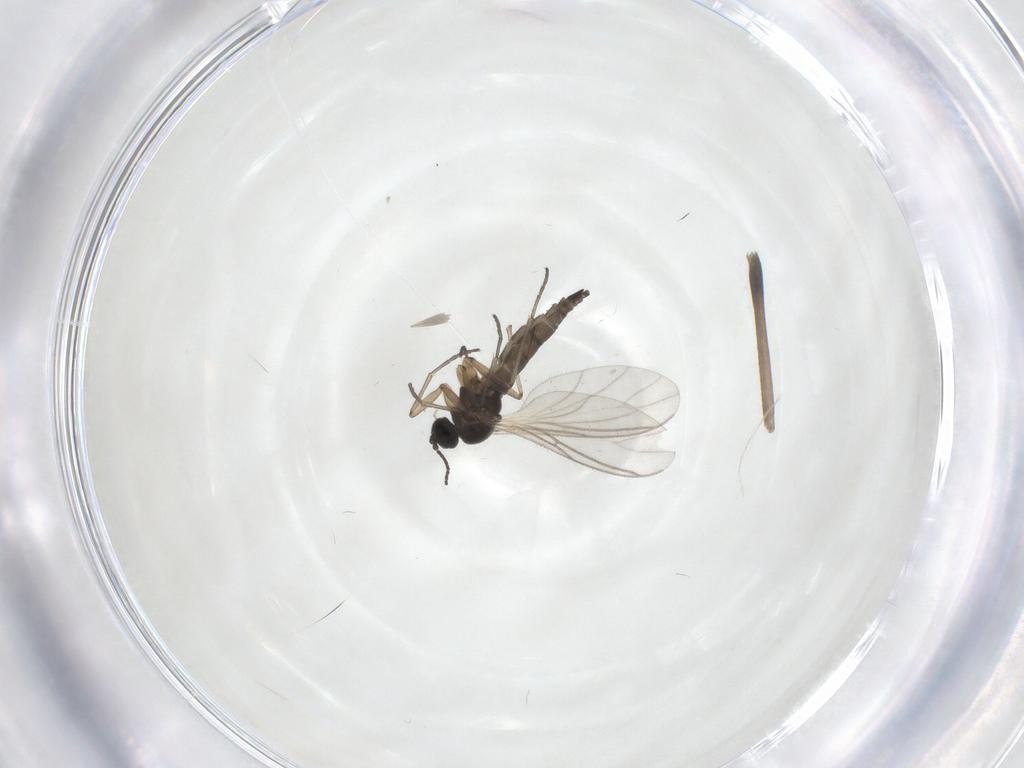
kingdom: Animalia
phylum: Arthropoda
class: Insecta
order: Diptera
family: Sciaridae
